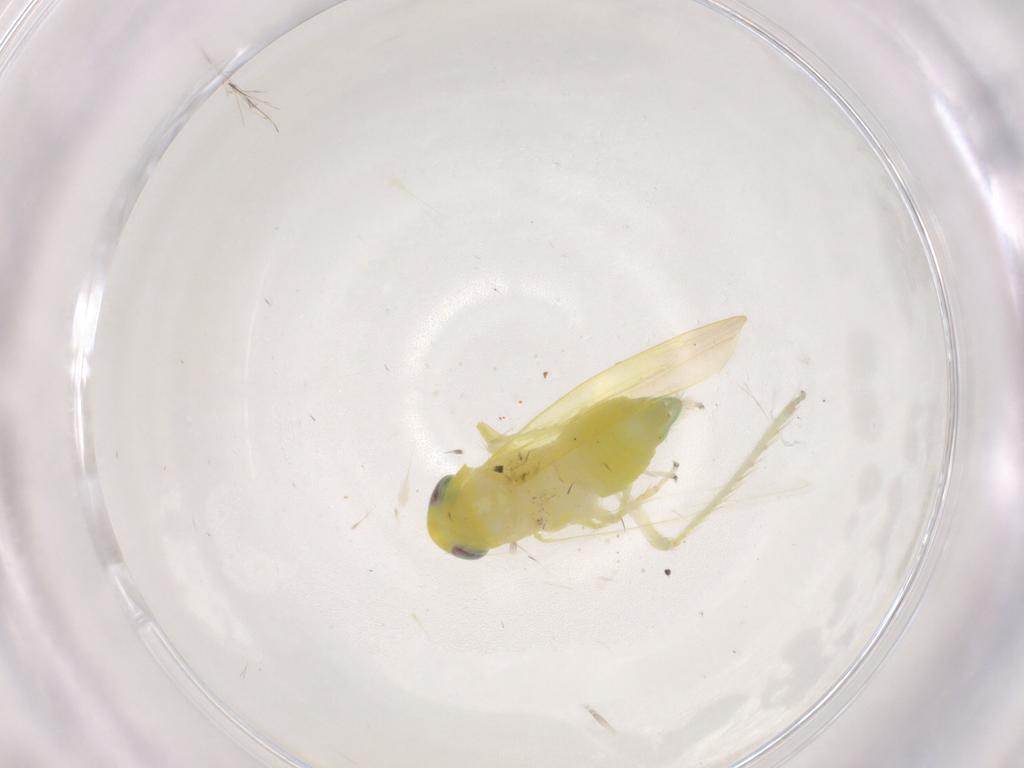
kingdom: Animalia
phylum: Arthropoda
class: Insecta
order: Hemiptera
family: Cicadellidae
